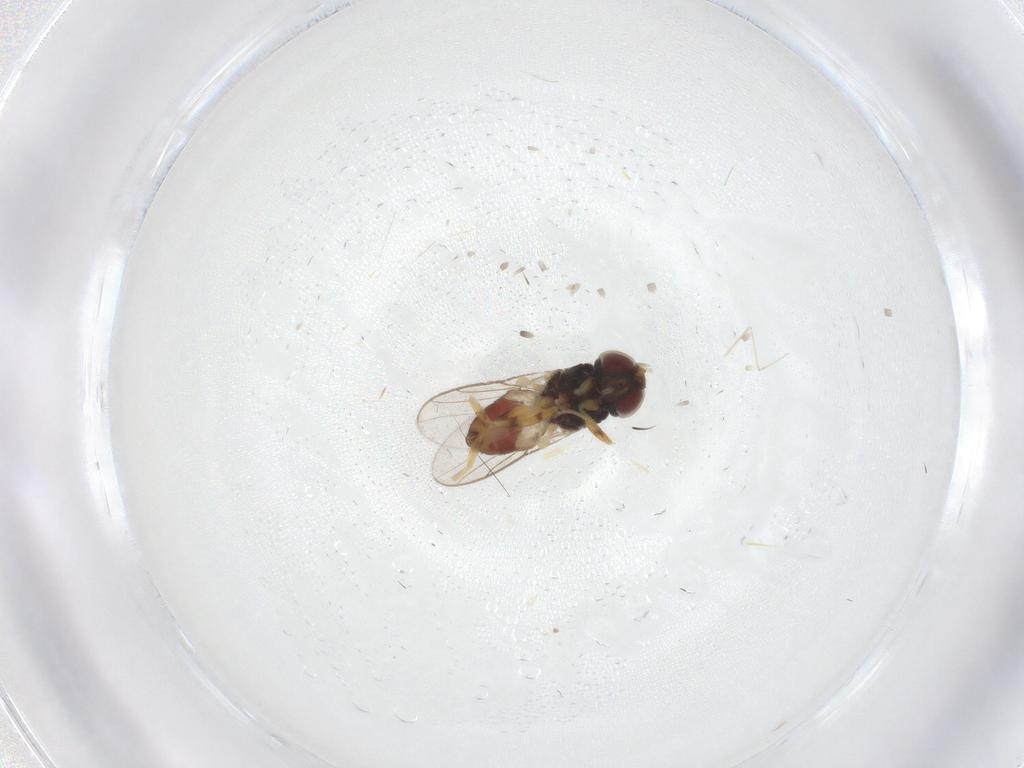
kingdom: Animalia
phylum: Arthropoda
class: Insecta
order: Diptera
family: Chloropidae
